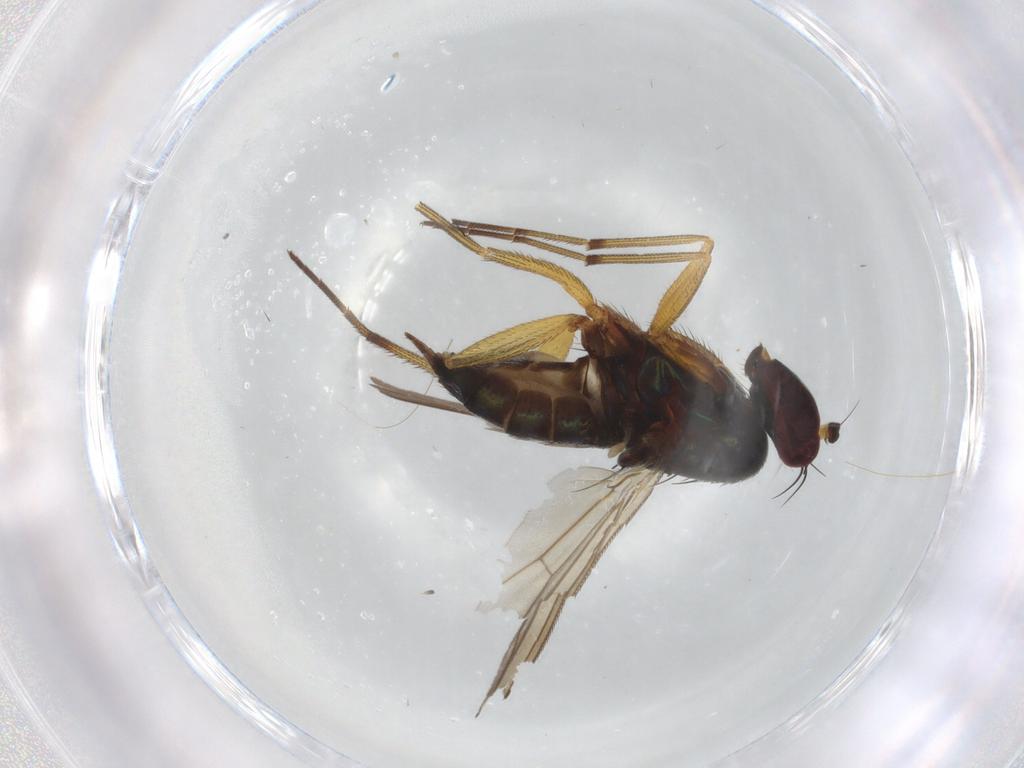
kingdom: Animalia
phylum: Arthropoda
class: Insecta
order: Diptera
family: Dolichopodidae
